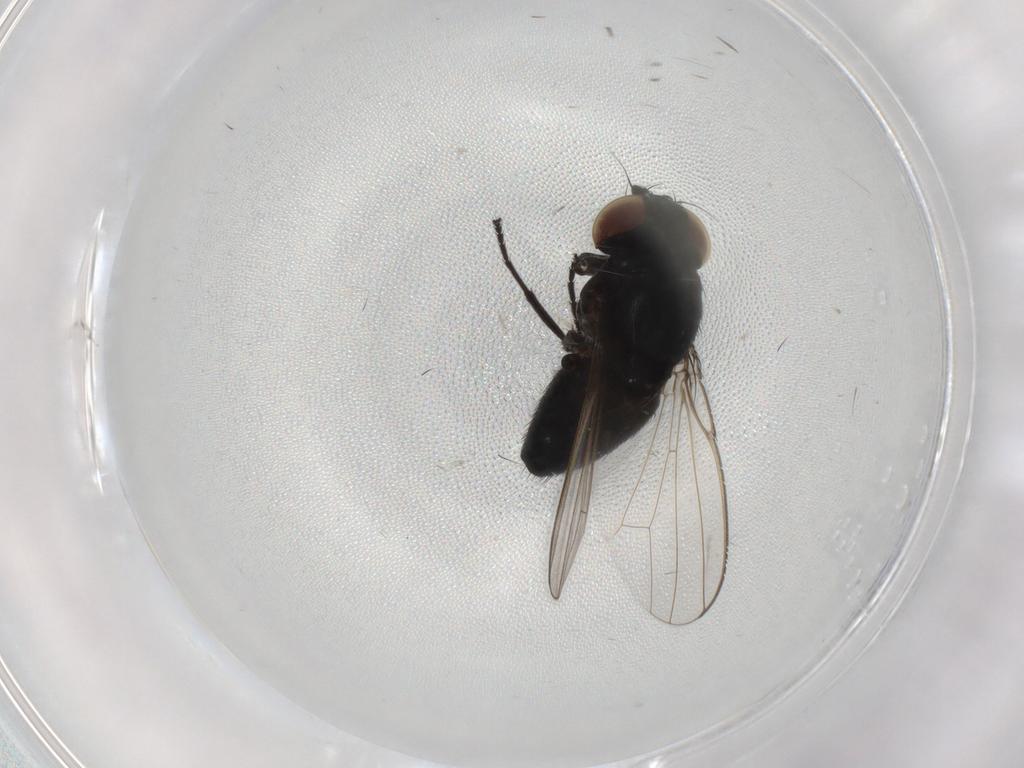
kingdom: Animalia
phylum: Arthropoda
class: Insecta
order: Diptera
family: Milichiidae
